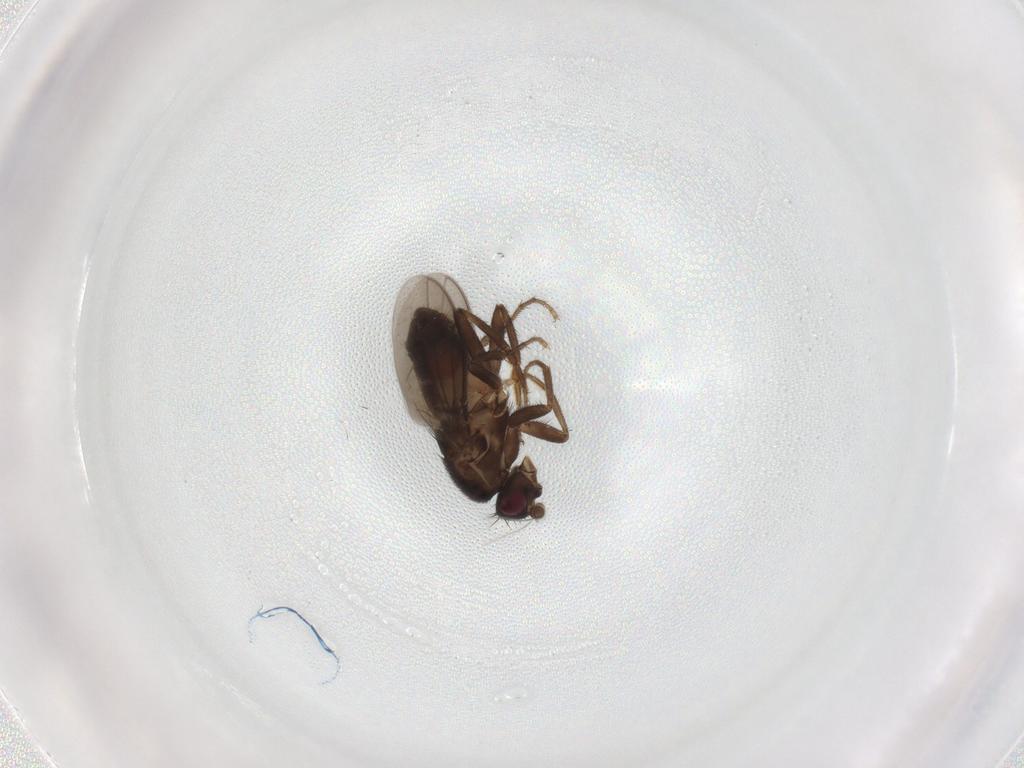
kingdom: Animalia
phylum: Arthropoda
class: Insecta
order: Diptera
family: Sphaeroceridae
